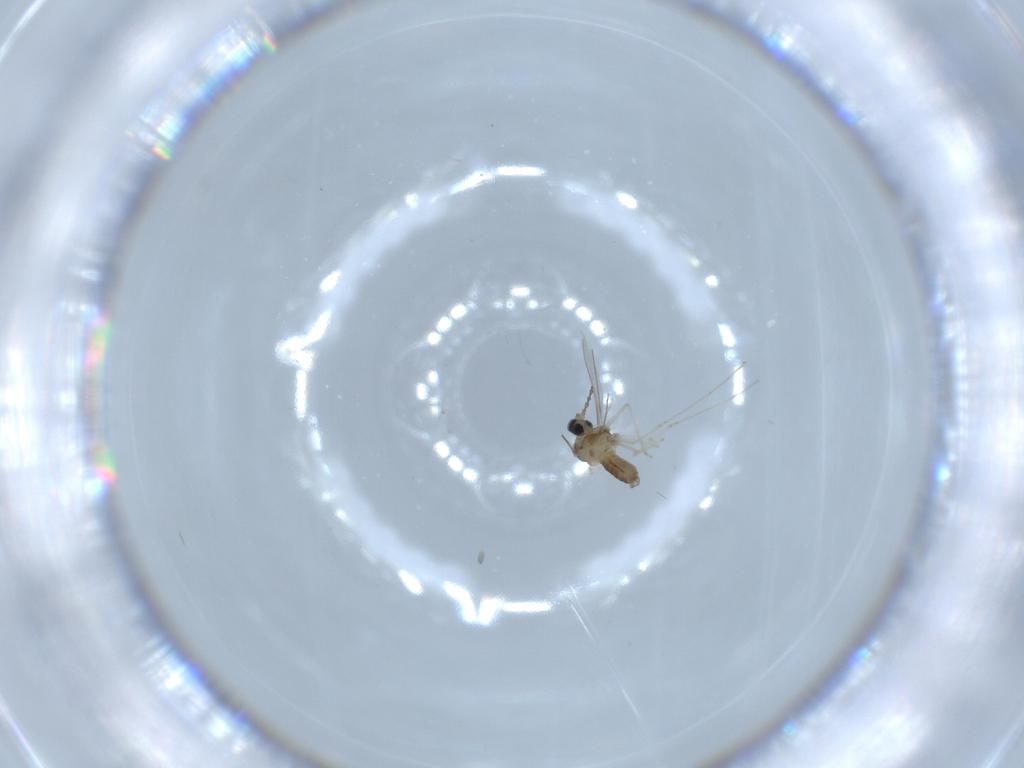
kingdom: Animalia
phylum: Arthropoda
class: Insecta
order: Diptera
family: Cecidomyiidae
